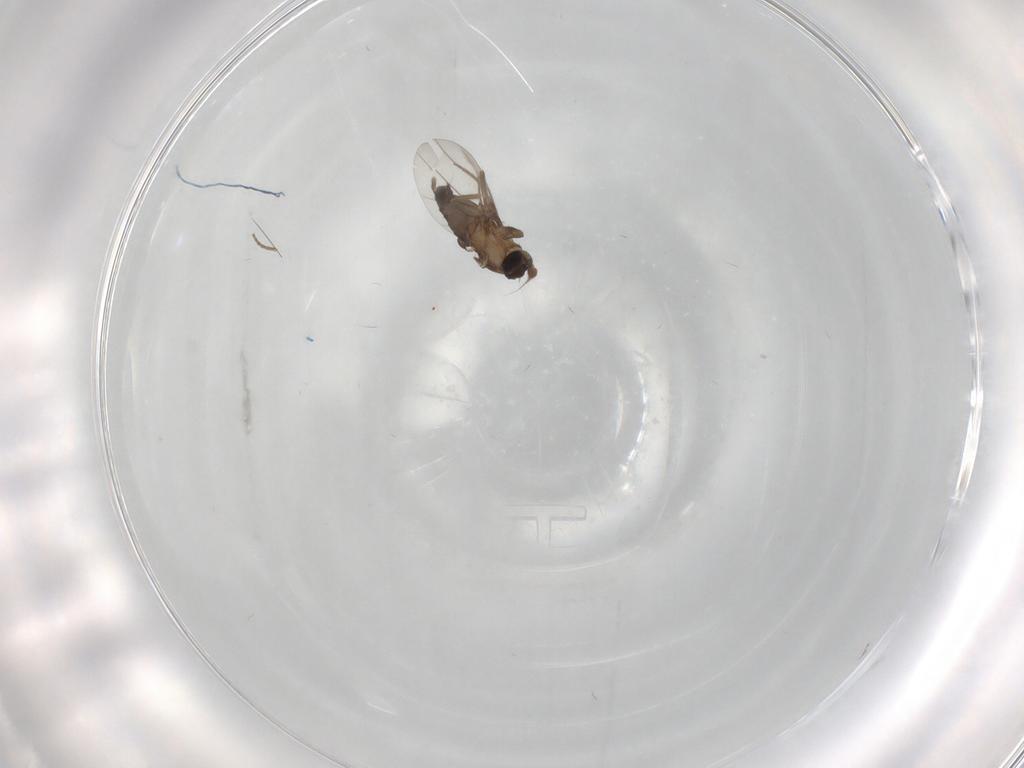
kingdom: Animalia
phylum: Arthropoda
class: Insecta
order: Diptera
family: Phoridae
